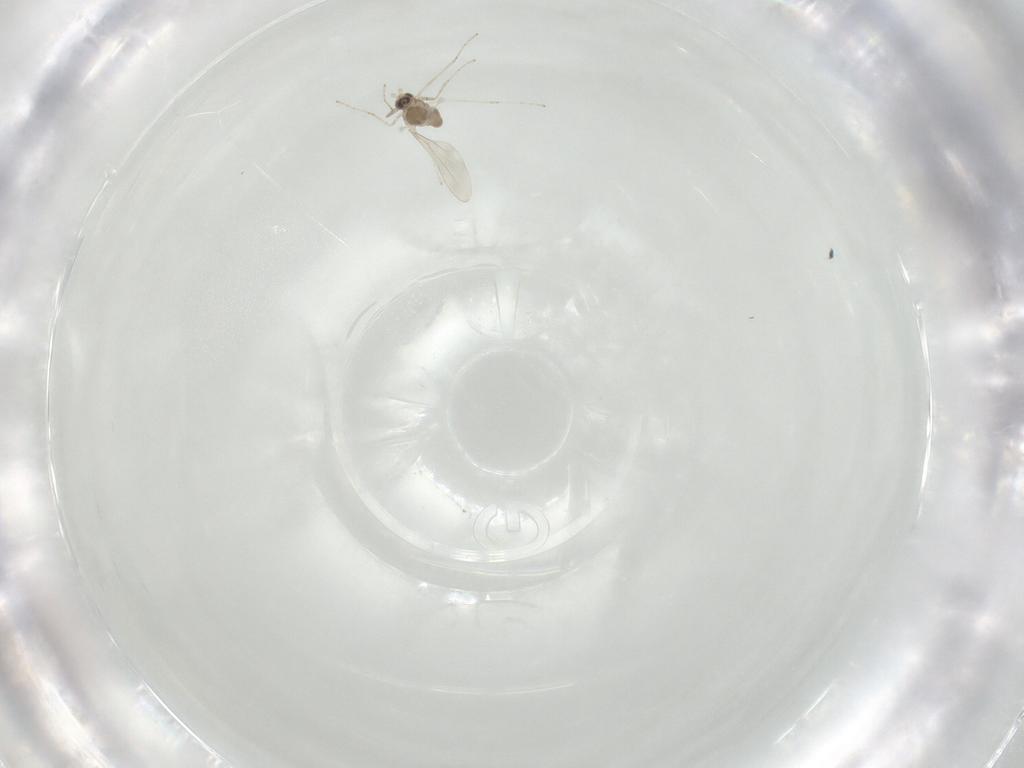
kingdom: Animalia
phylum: Arthropoda
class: Insecta
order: Diptera
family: Cecidomyiidae
